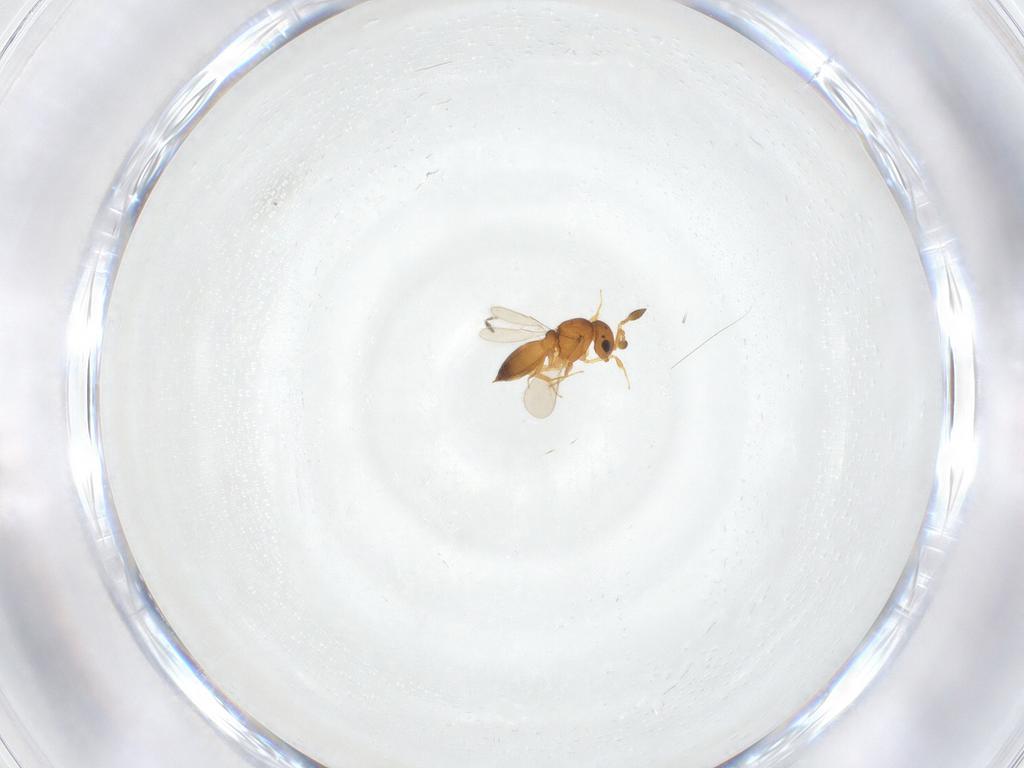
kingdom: Animalia
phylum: Arthropoda
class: Insecta
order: Hymenoptera
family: Scelionidae
